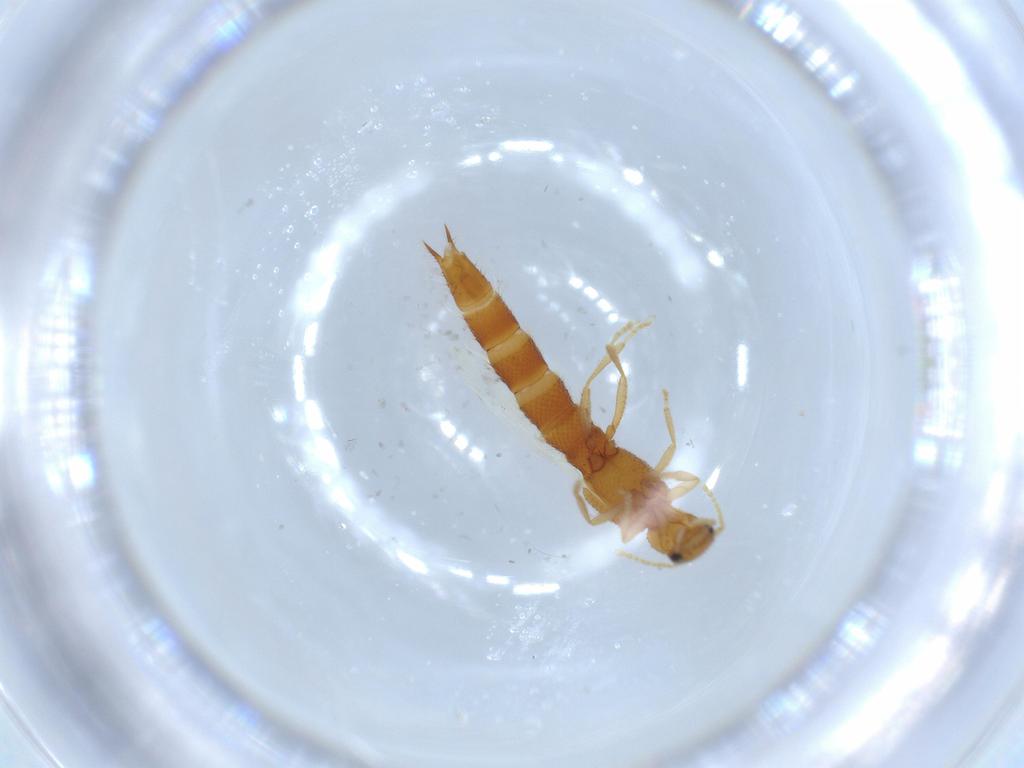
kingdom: Animalia
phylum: Arthropoda
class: Insecta
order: Coleoptera
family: Staphylinidae
